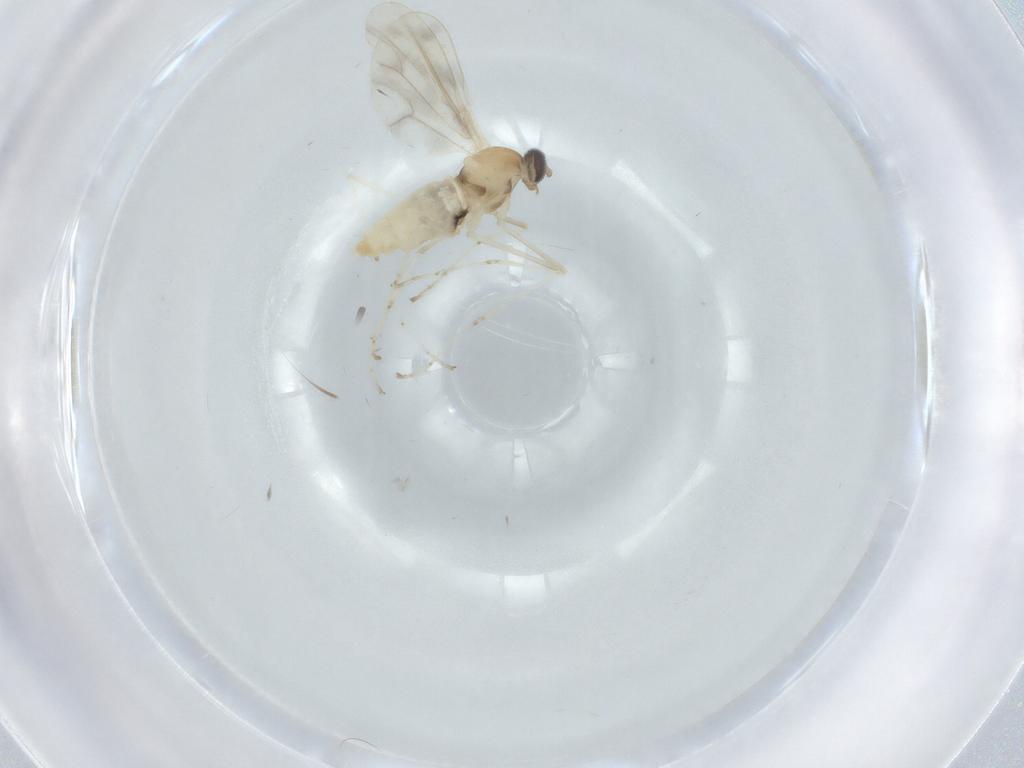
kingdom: Animalia
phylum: Arthropoda
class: Insecta
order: Diptera
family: Cecidomyiidae
